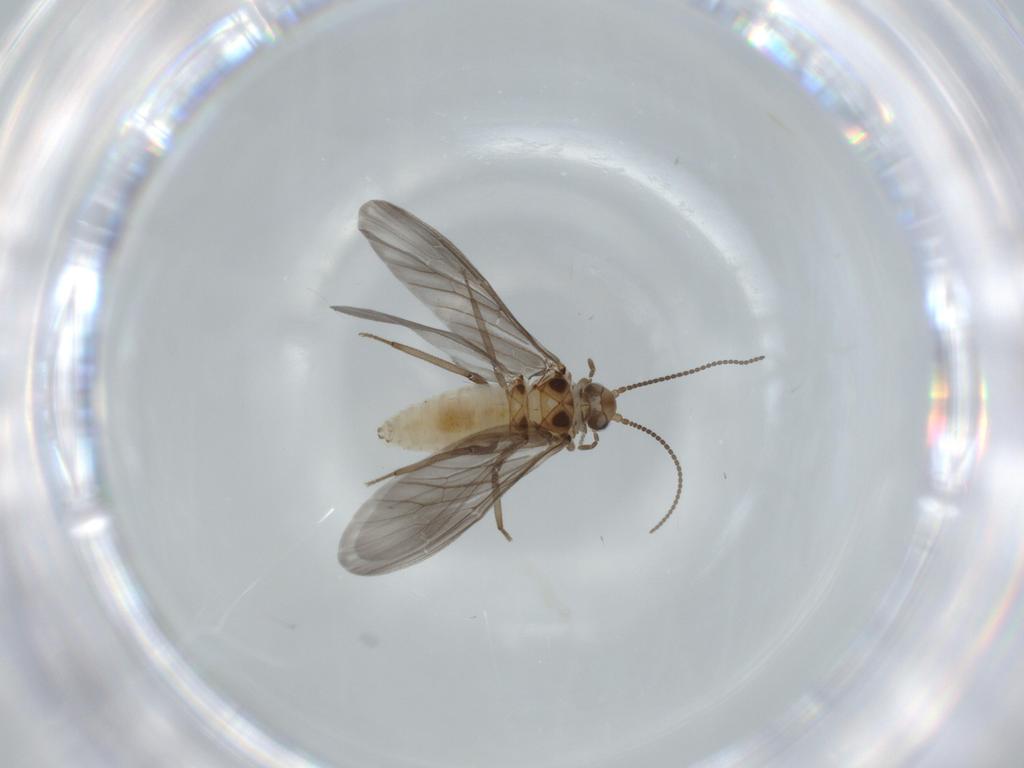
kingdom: Animalia
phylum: Arthropoda
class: Insecta
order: Neuroptera
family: Coniopterygidae
